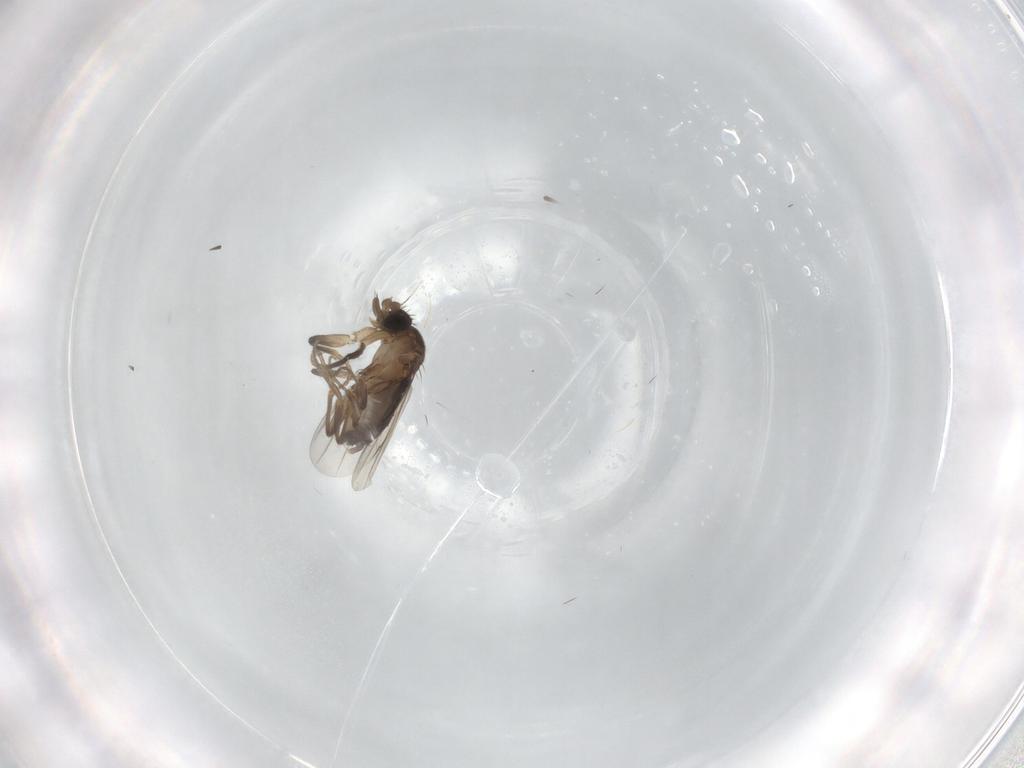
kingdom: Animalia
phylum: Arthropoda
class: Insecta
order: Diptera
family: Phoridae
